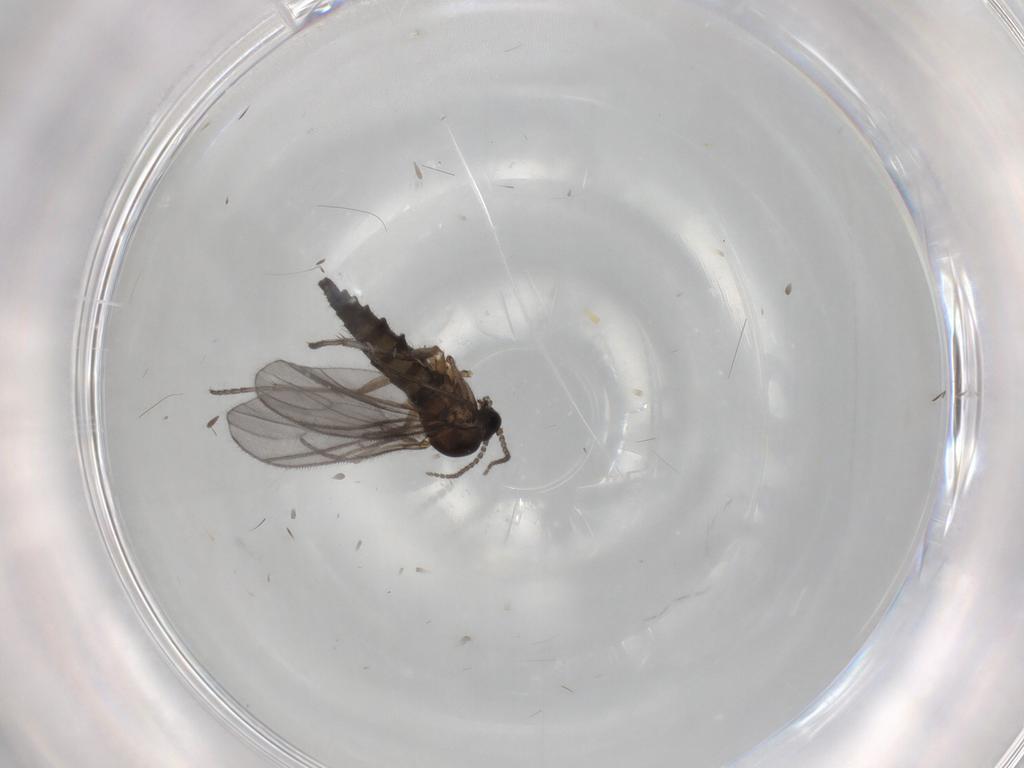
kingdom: Animalia
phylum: Arthropoda
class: Insecta
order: Diptera
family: Sciaridae
